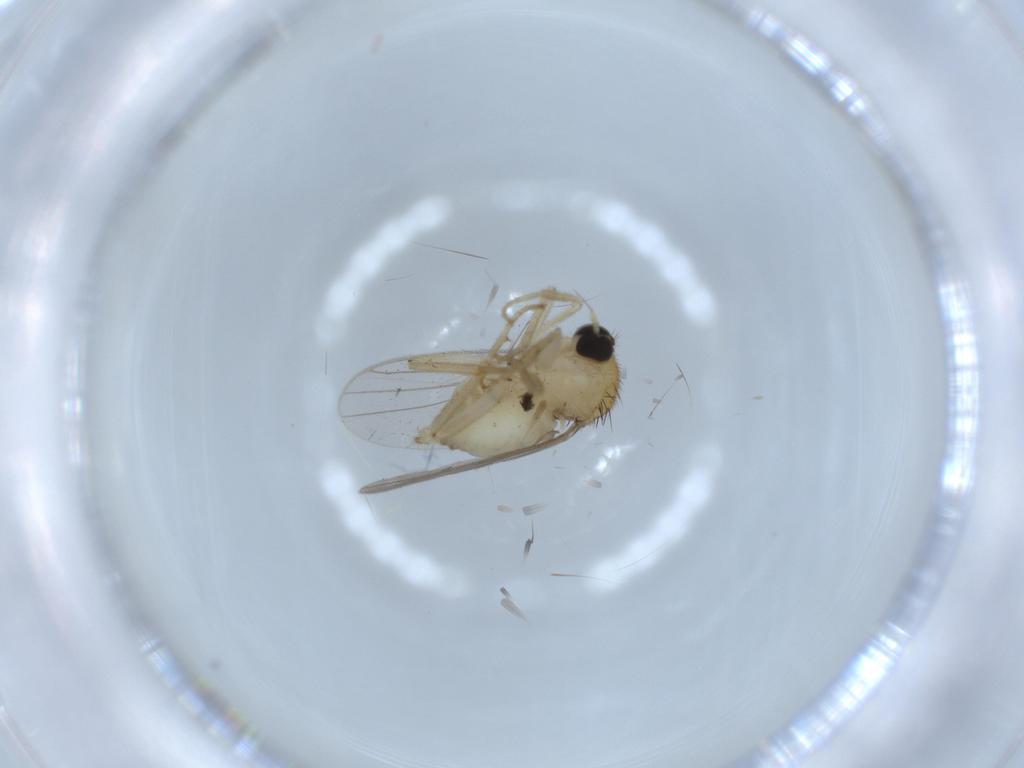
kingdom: Animalia
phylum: Arthropoda
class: Insecta
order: Diptera
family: Hybotidae
